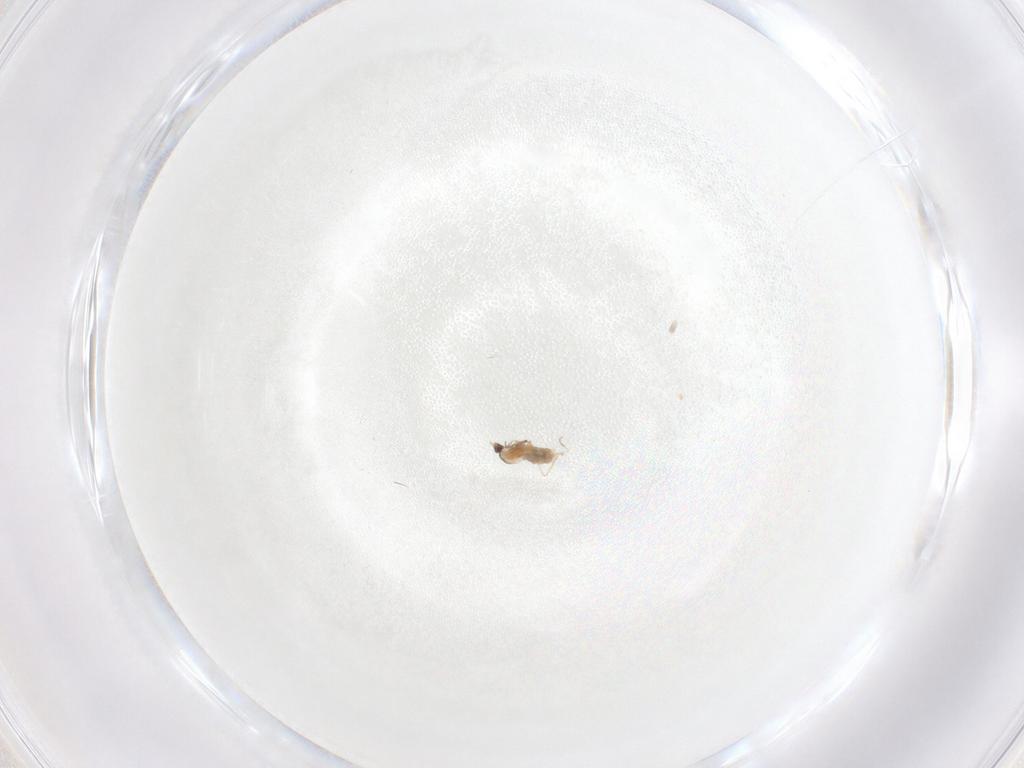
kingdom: Animalia
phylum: Arthropoda
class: Insecta
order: Diptera
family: Cecidomyiidae
